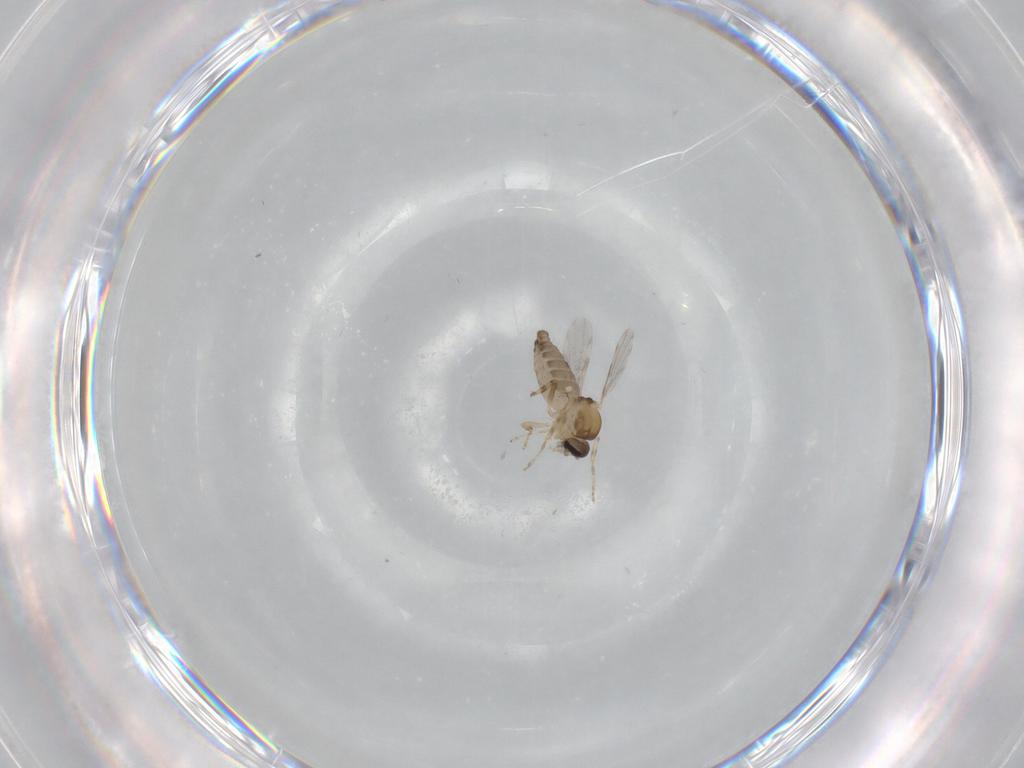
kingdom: Animalia
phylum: Arthropoda
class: Insecta
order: Diptera
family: Ceratopogonidae
